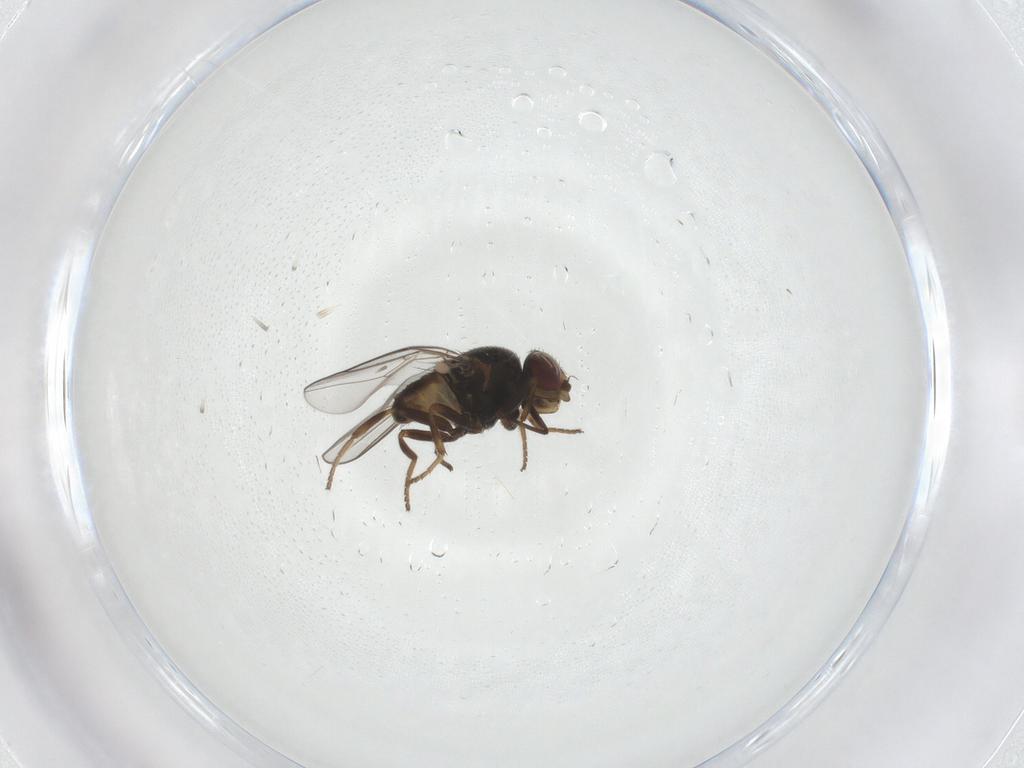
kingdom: Animalia
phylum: Arthropoda
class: Insecta
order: Diptera
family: Chloropidae
